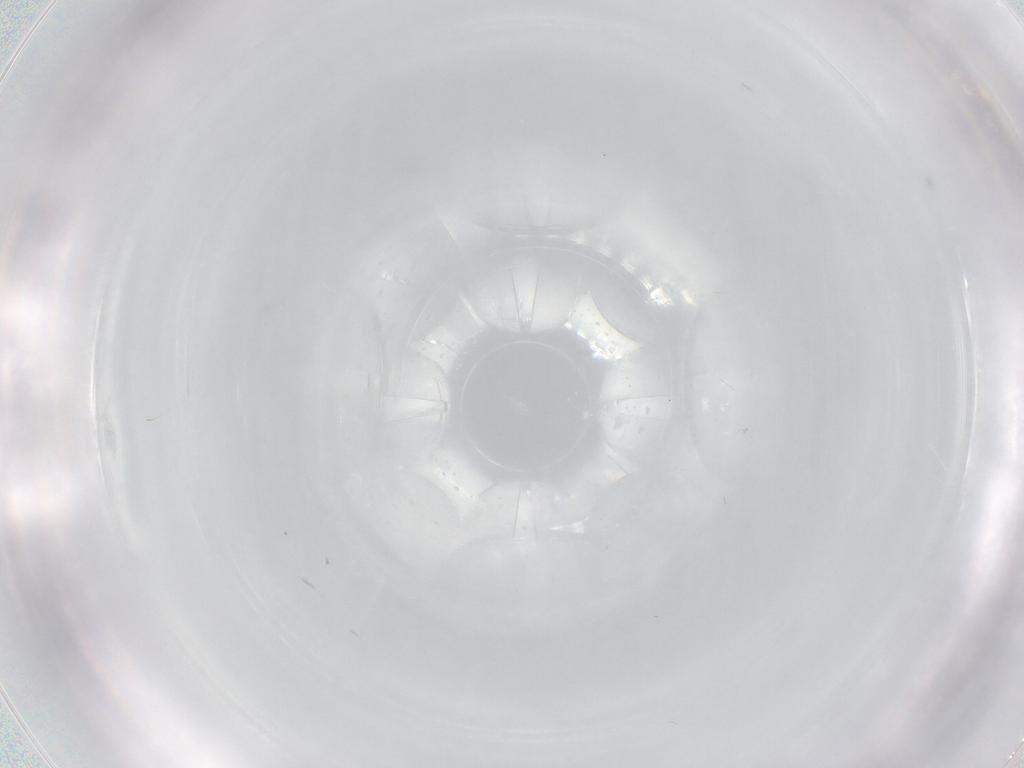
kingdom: Animalia
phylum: Arthropoda
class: Insecta
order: Diptera
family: Chironomidae
